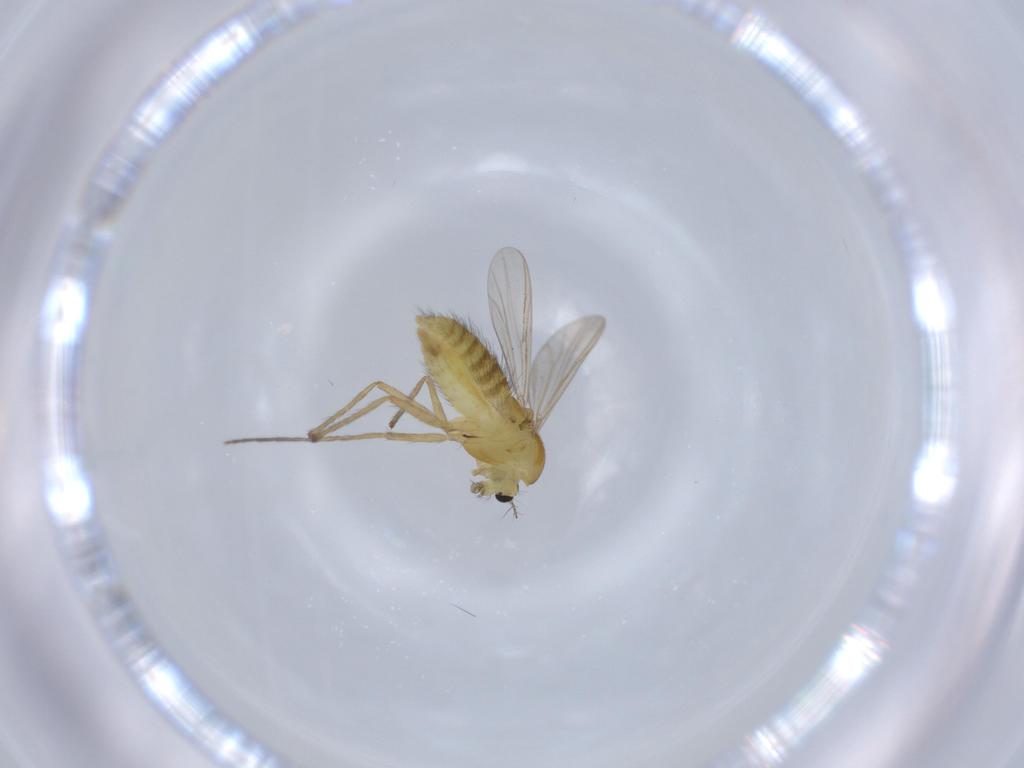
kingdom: Animalia
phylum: Arthropoda
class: Insecta
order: Diptera
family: Chironomidae
